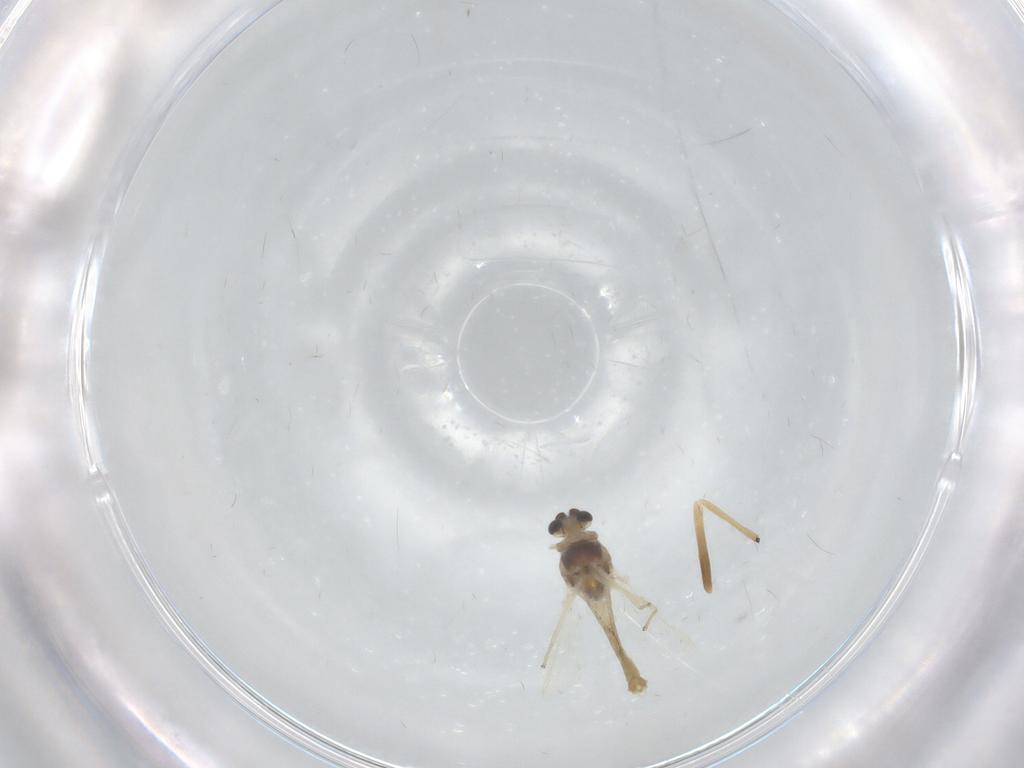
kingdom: Animalia
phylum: Arthropoda
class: Insecta
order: Diptera
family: Chironomidae
